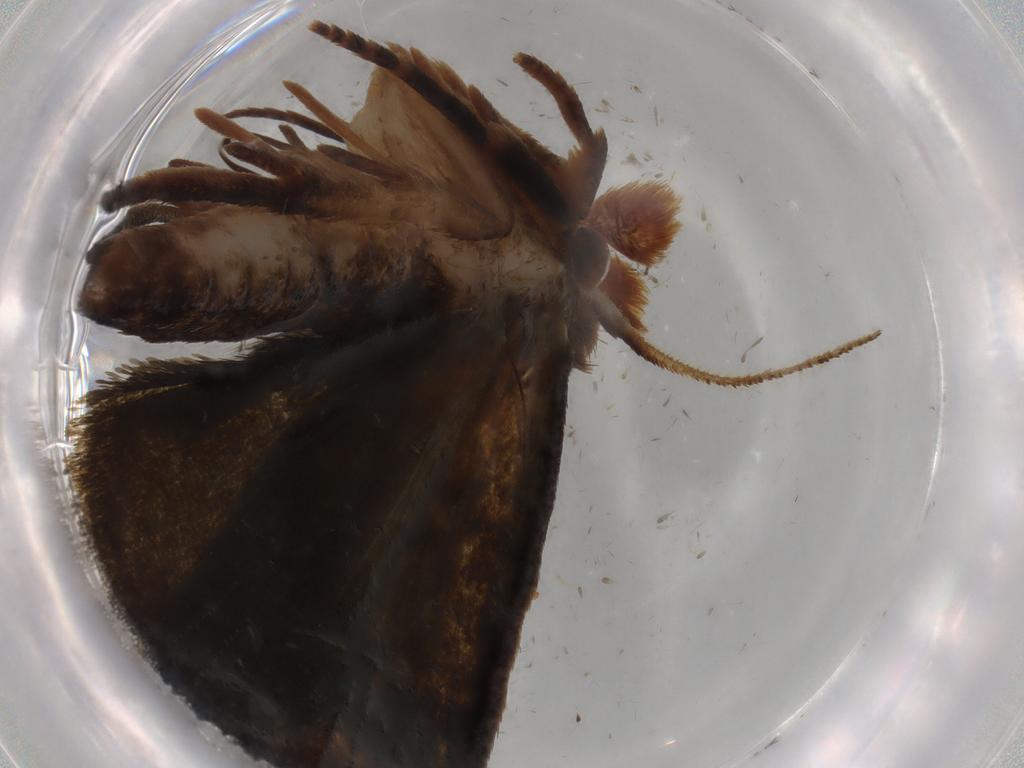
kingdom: Animalia
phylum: Arthropoda
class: Insecta
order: Lepidoptera
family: Geometridae
